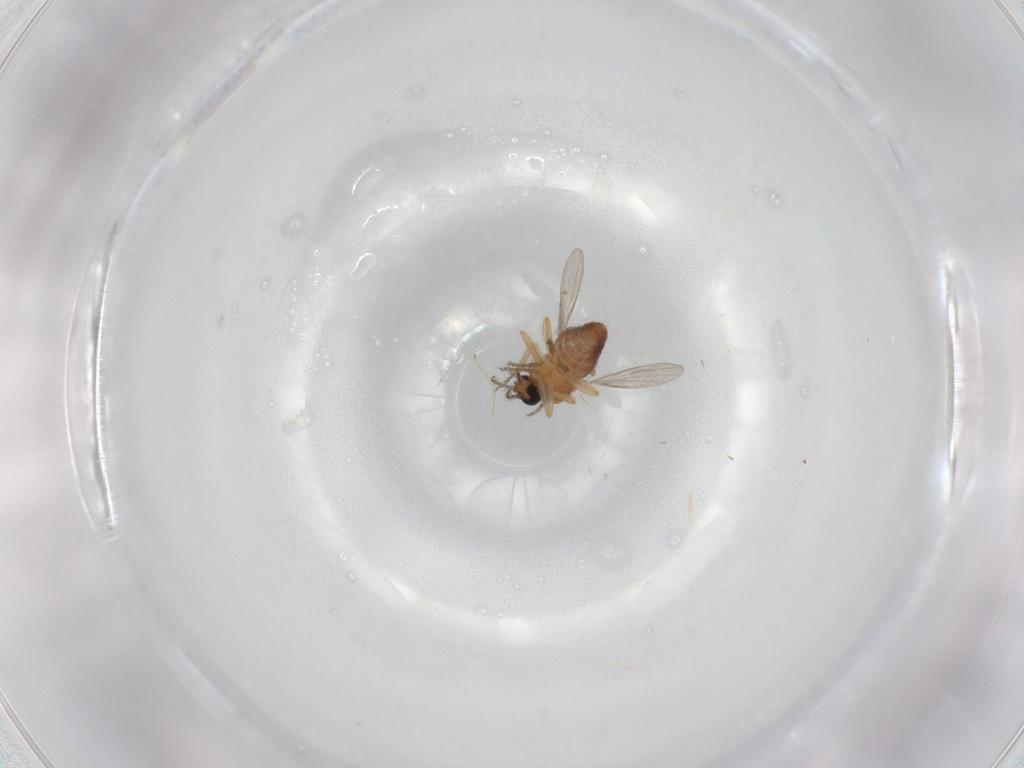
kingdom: Animalia
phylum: Arthropoda
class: Insecta
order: Diptera
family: Ceratopogonidae
